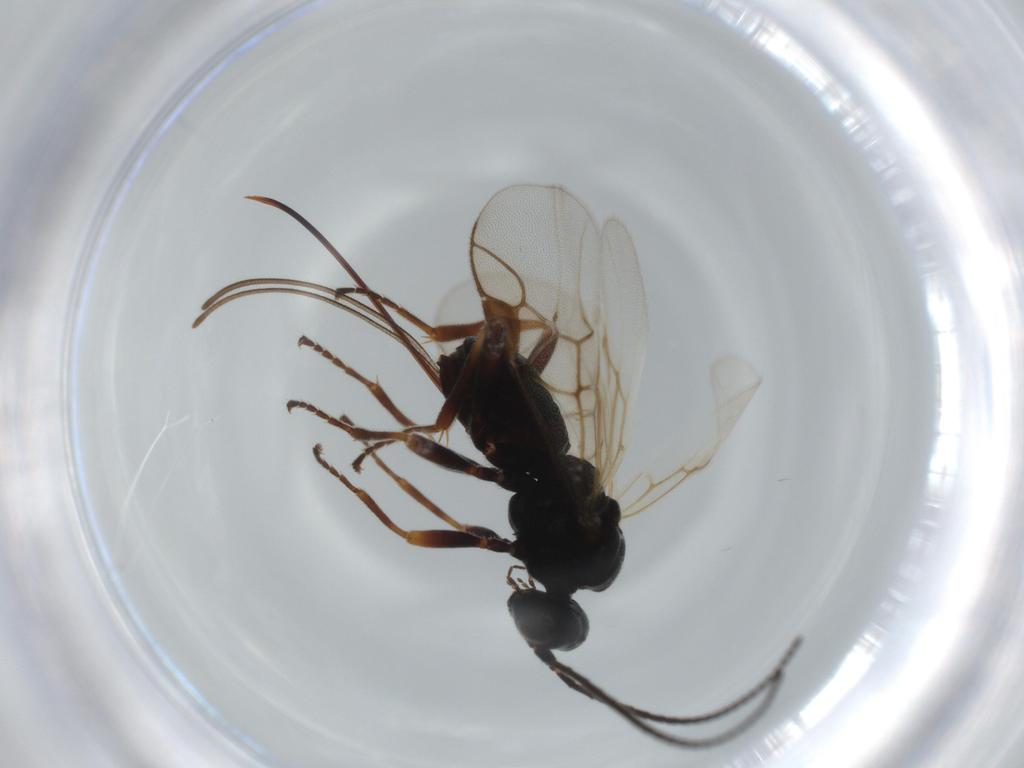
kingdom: Animalia
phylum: Arthropoda
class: Insecta
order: Hymenoptera
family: Braconidae
